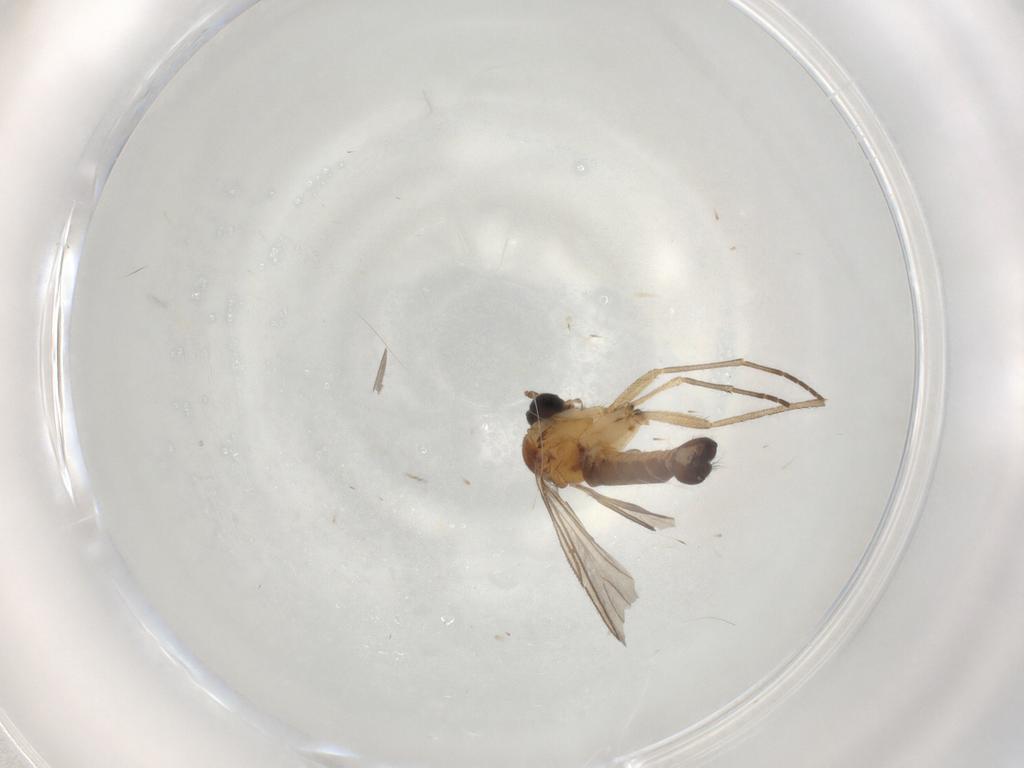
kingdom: Animalia
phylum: Arthropoda
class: Insecta
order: Diptera
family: Sciaridae
